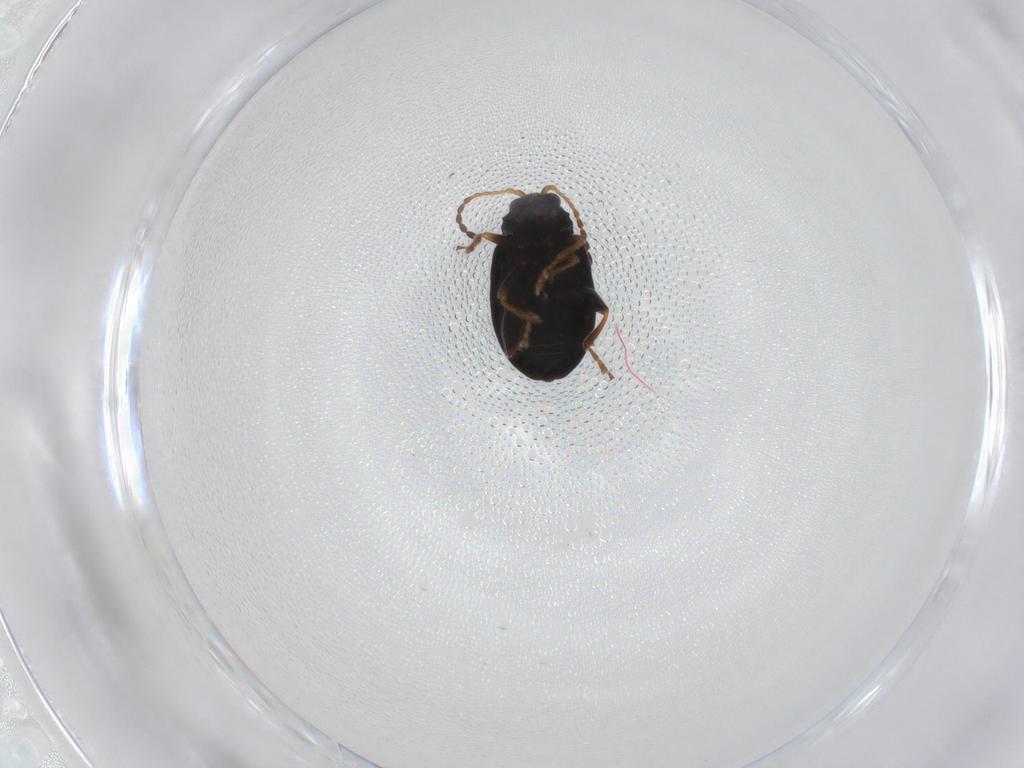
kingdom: Animalia
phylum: Arthropoda
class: Insecta
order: Coleoptera
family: Chrysomelidae
